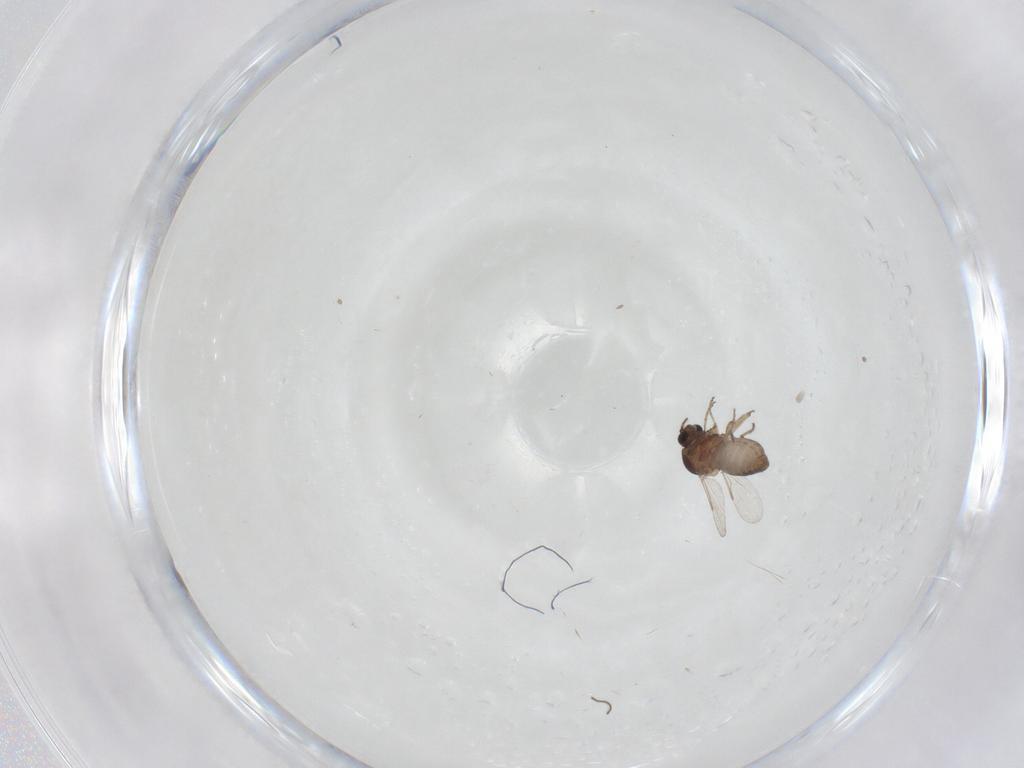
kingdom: Animalia
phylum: Arthropoda
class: Insecta
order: Diptera
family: Ceratopogonidae
